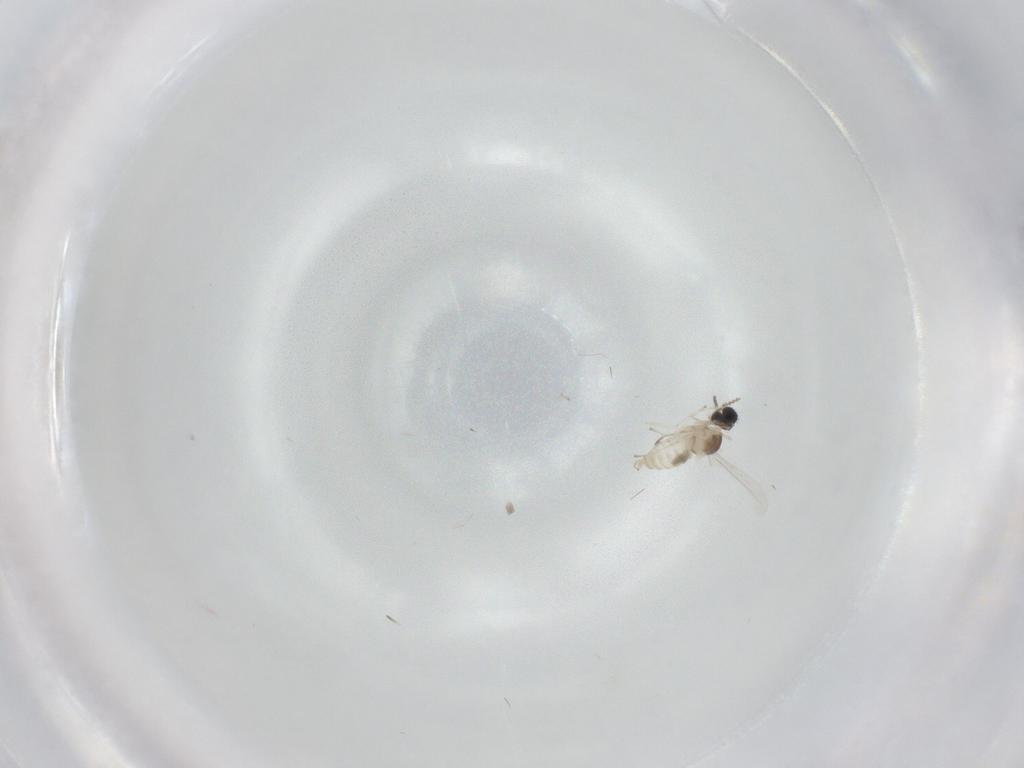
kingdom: Animalia
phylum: Arthropoda
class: Insecta
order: Diptera
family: Cecidomyiidae
